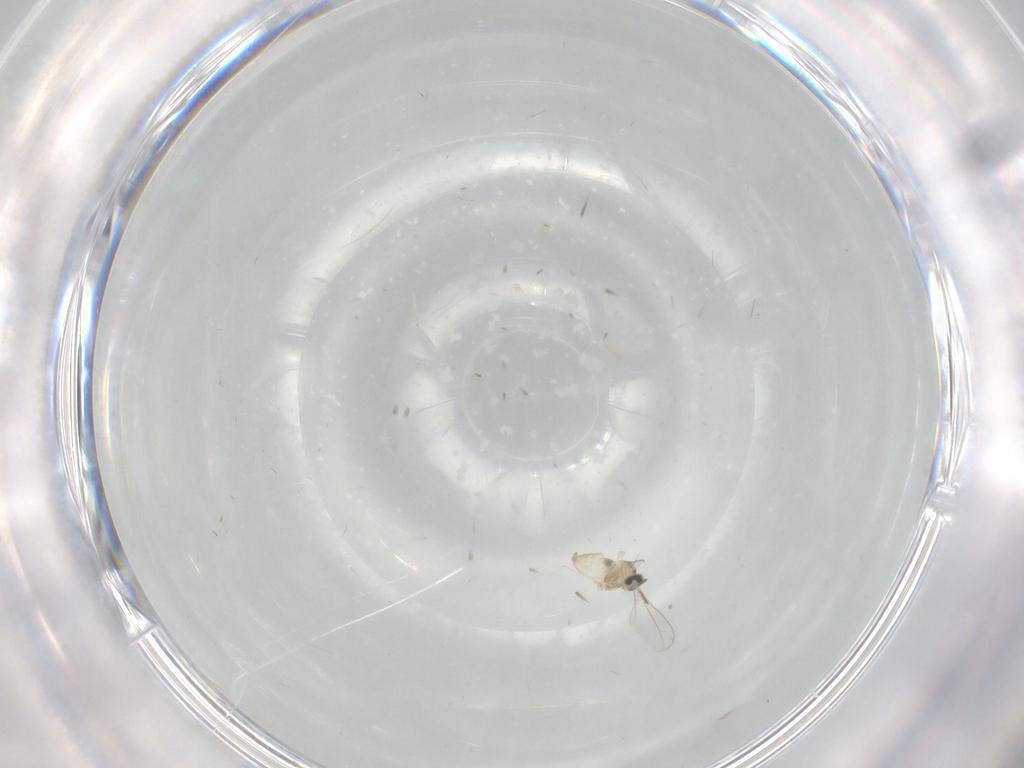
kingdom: Animalia
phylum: Arthropoda
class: Insecta
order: Diptera
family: Cecidomyiidae
